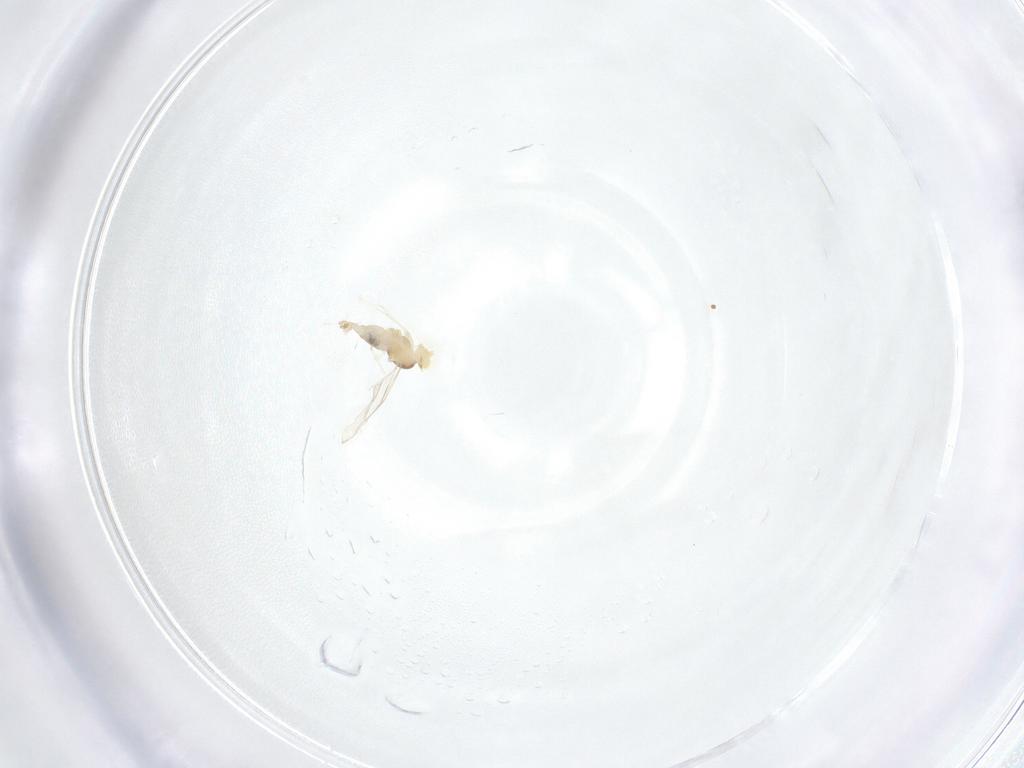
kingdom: Animalia
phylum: Arthropoda
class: Insecta
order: Diptera
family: Cecidomyiidae
